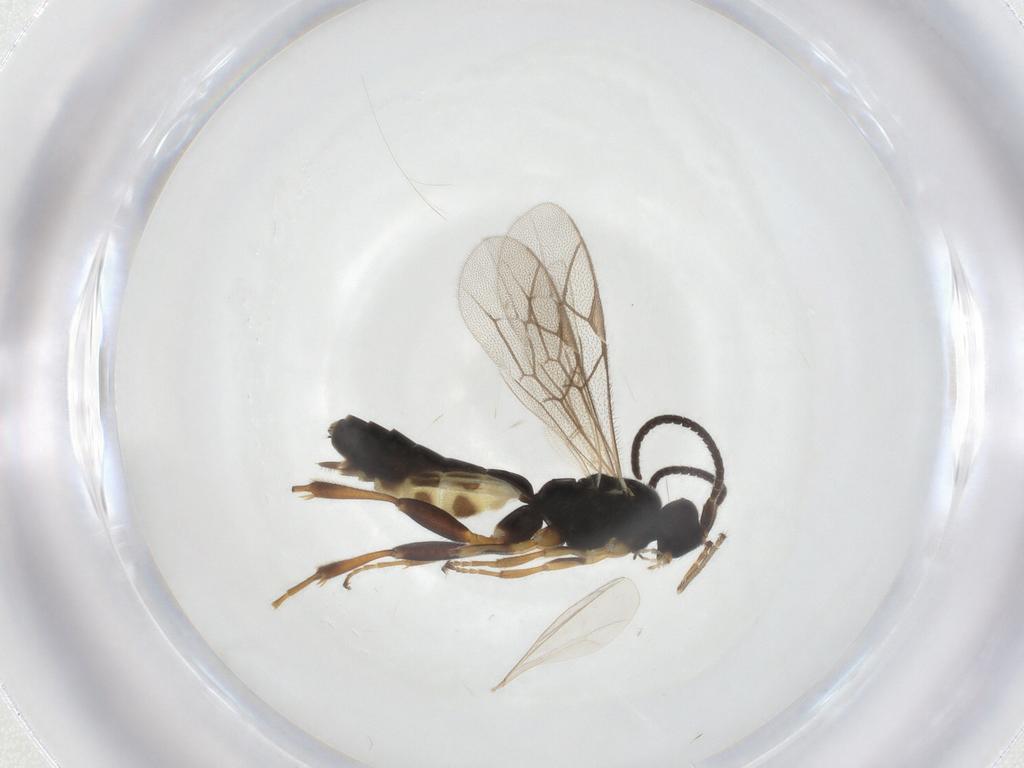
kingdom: Animalia
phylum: Arthropoda
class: Insecta
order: Hymenoptera
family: Ichneumonidae
